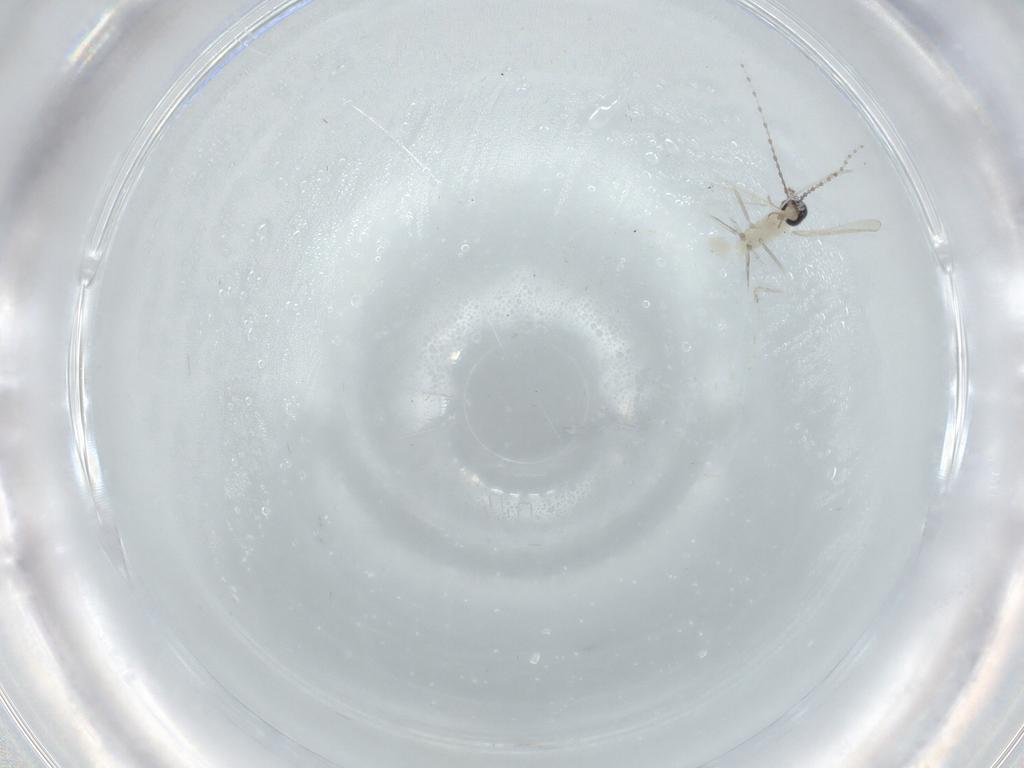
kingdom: Animalia
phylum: Arthropoda
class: Insecta
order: Diptera
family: Cecidomyiidae
